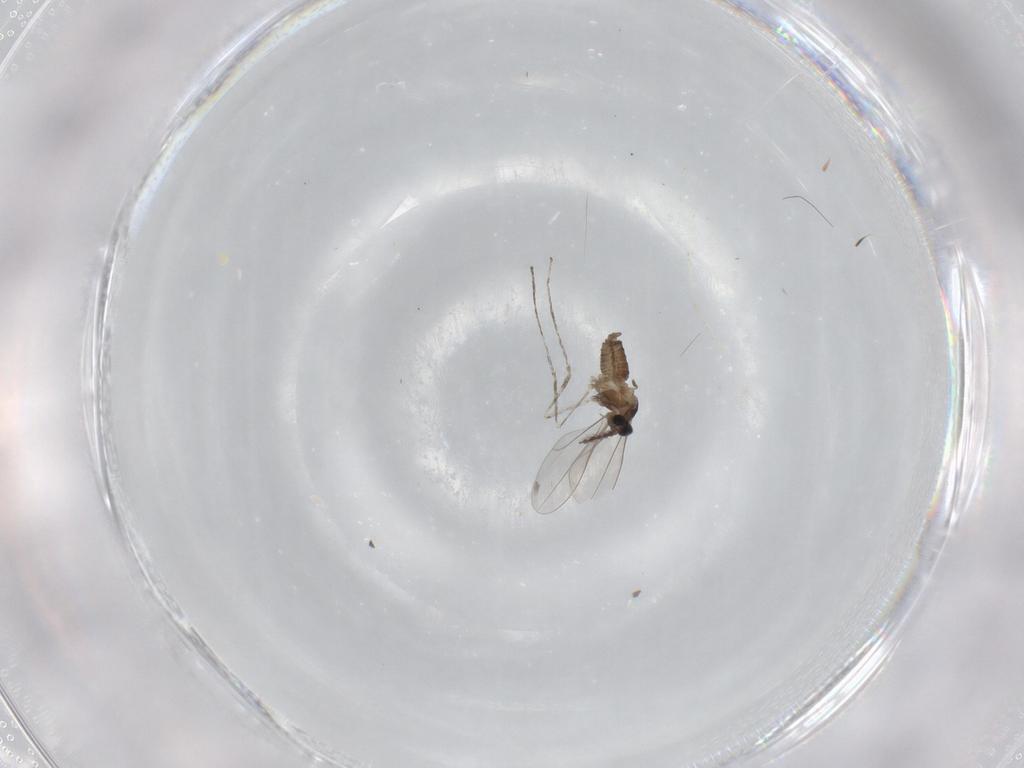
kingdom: Animalia
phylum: Arthropoda
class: Insecta
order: Diptera
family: Cecidomyiidae
